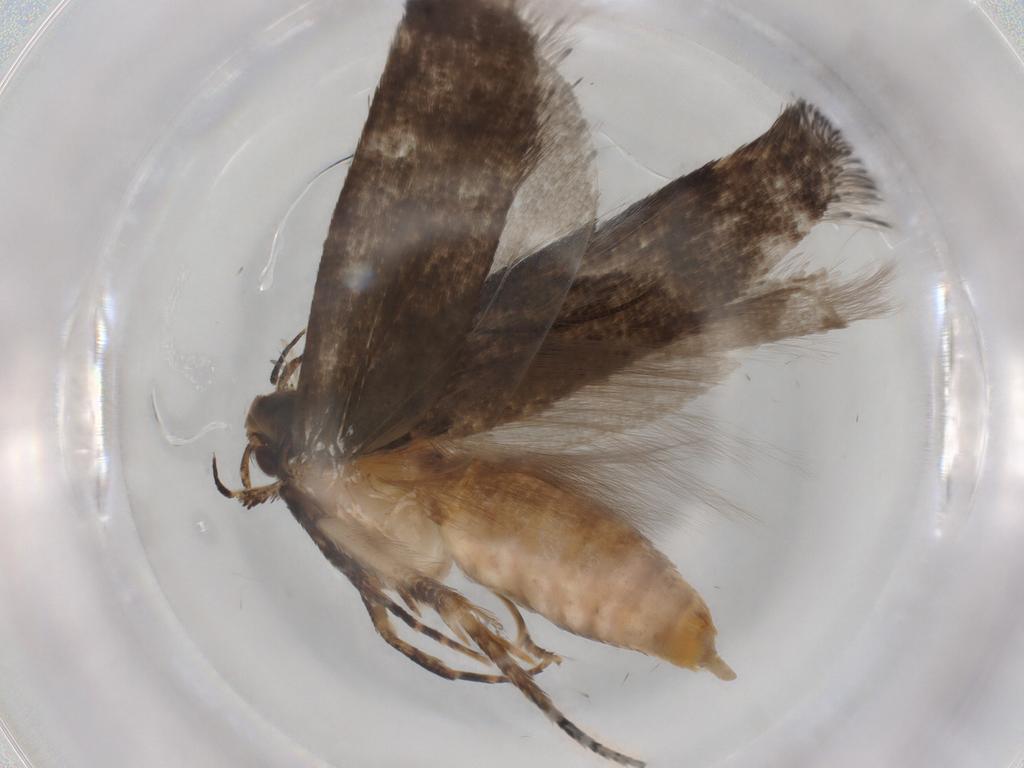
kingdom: Animalia
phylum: Arthropoda
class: Insecta
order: Lepidoptera
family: Gelechiidae
